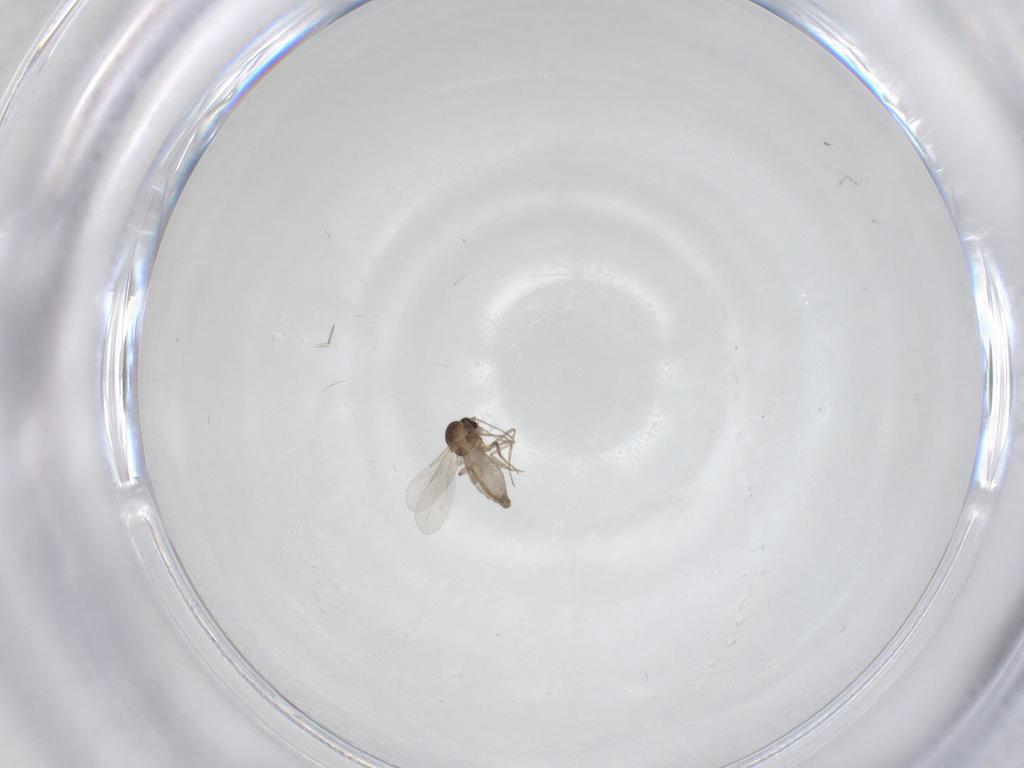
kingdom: Animalia
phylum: Arthropoda
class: Insecta
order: Diptera
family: Ceratopogonidae
